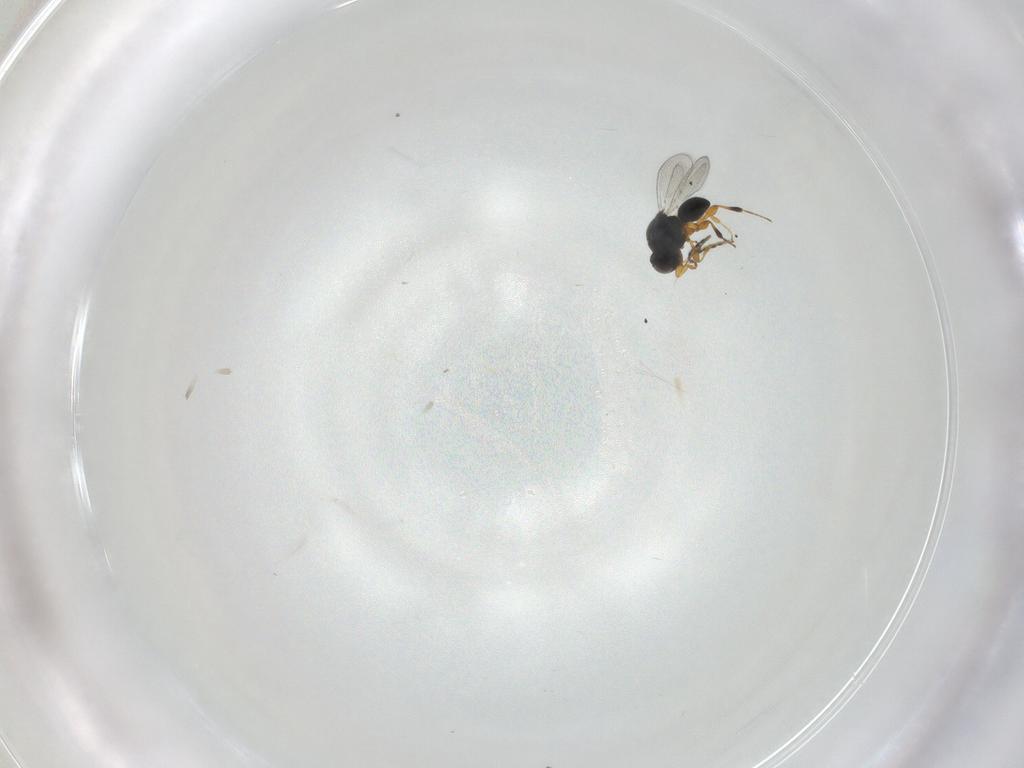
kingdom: Animalia
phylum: Arthropoda
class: Insecta
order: Hymenoptera
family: Platygastridae
